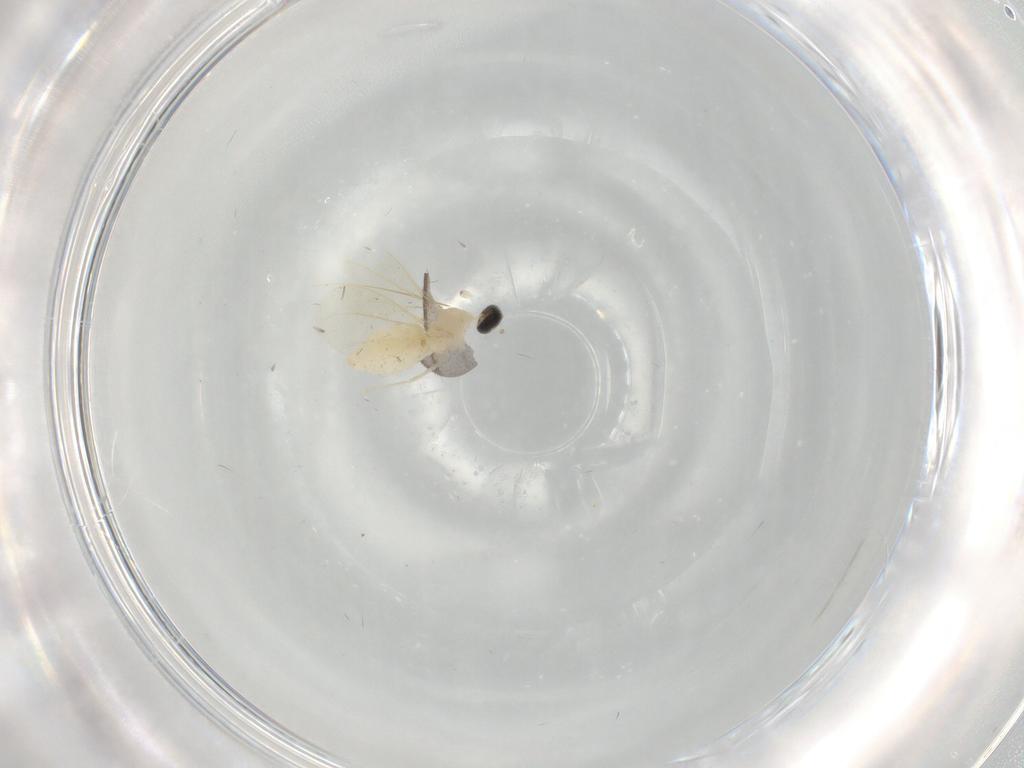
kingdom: Animalia
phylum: Arthropoda
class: Insecta
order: Diptera
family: Cecidomyiidae
